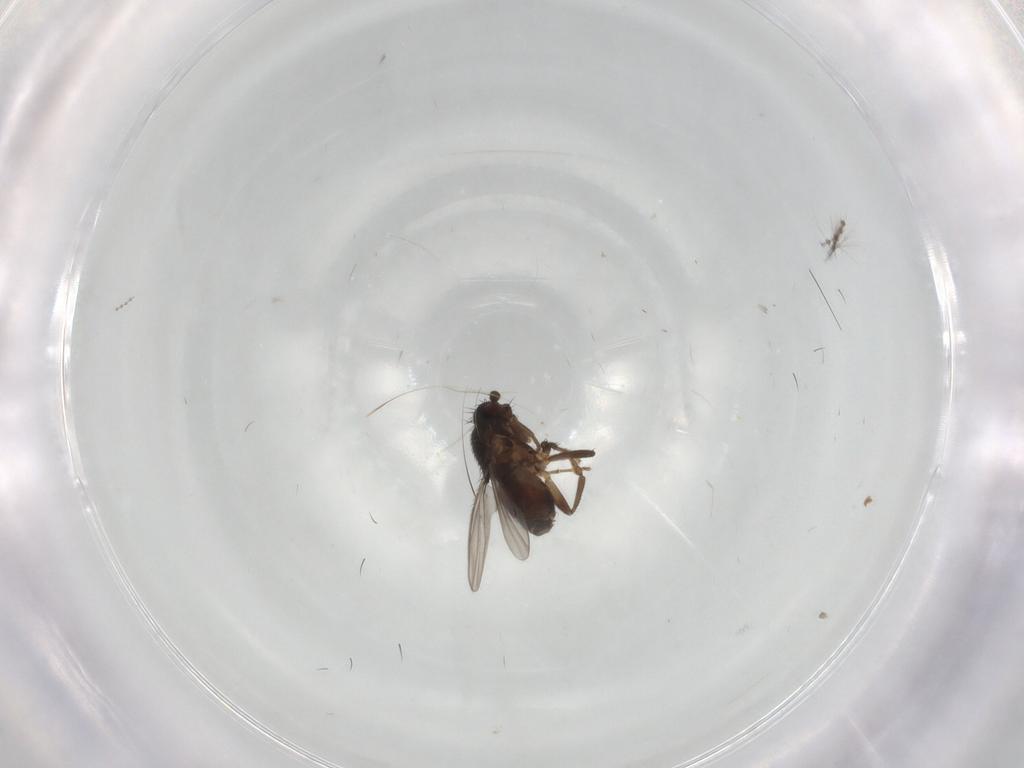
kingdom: Animalia
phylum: Arthropoda
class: Insecta
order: Diptera
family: Sphaeroceridae
